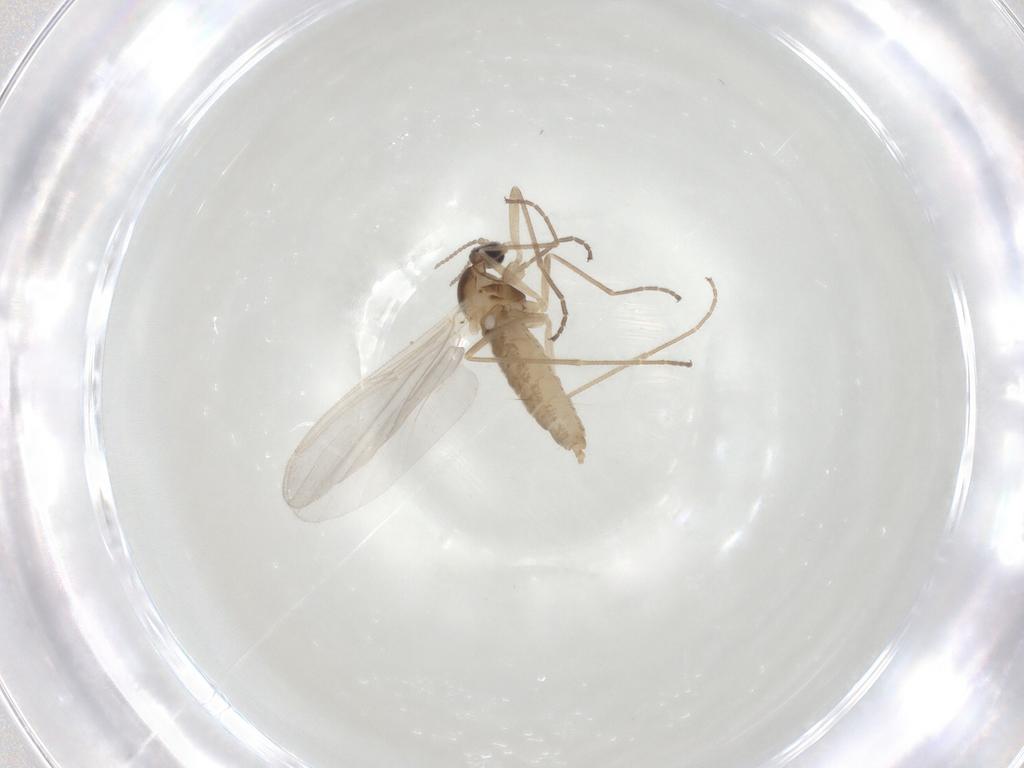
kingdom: Animalia
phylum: Arthropoda
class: Insecta
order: Diptera
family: Cecidomyiidae
